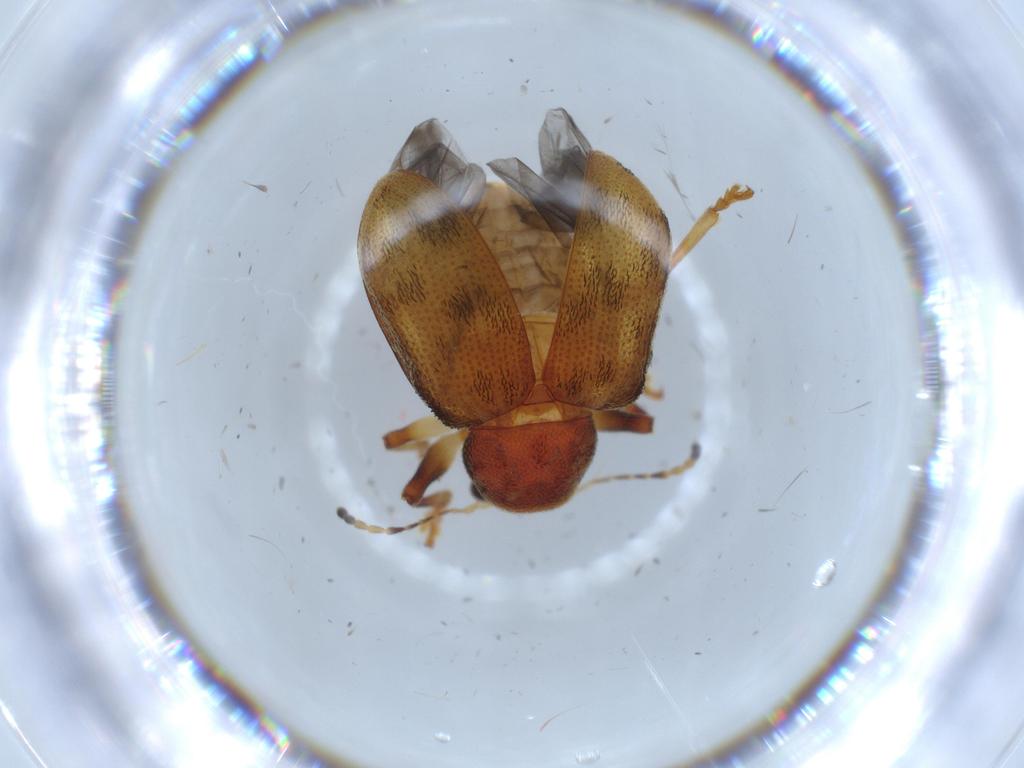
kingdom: Animalia
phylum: Arthropoda
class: Insecta
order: Coleoptera
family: Chrysomelidae
